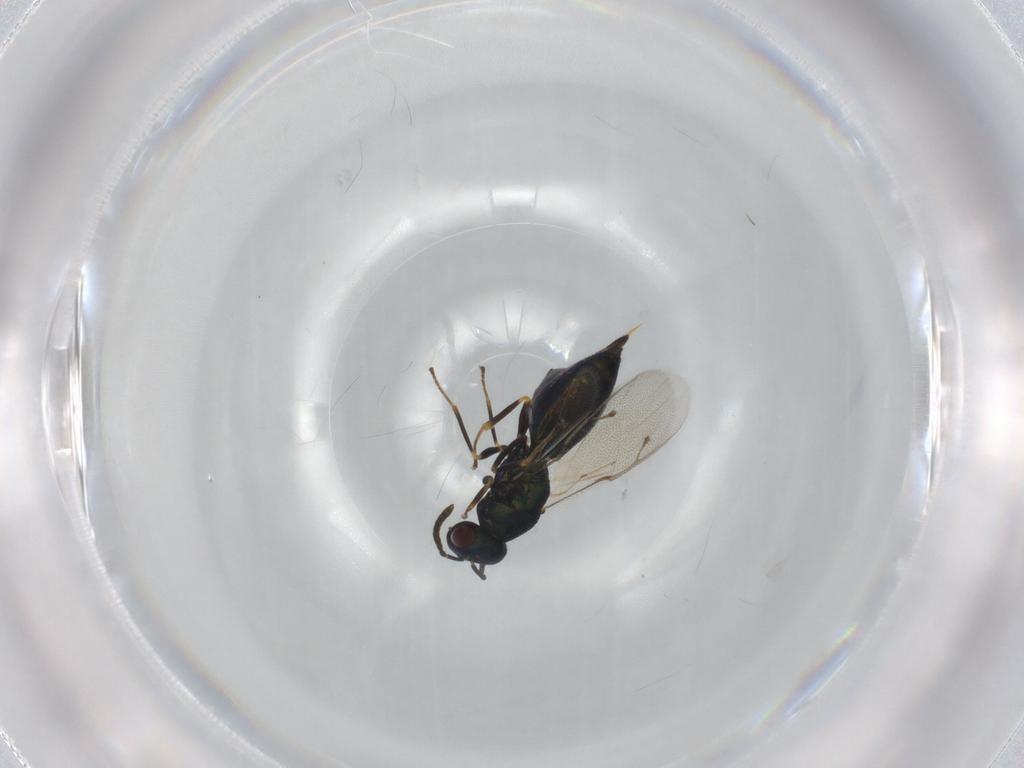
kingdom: Animalia
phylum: Arthropoda
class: Insecta
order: Hymenoptera
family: Pteromalidae
